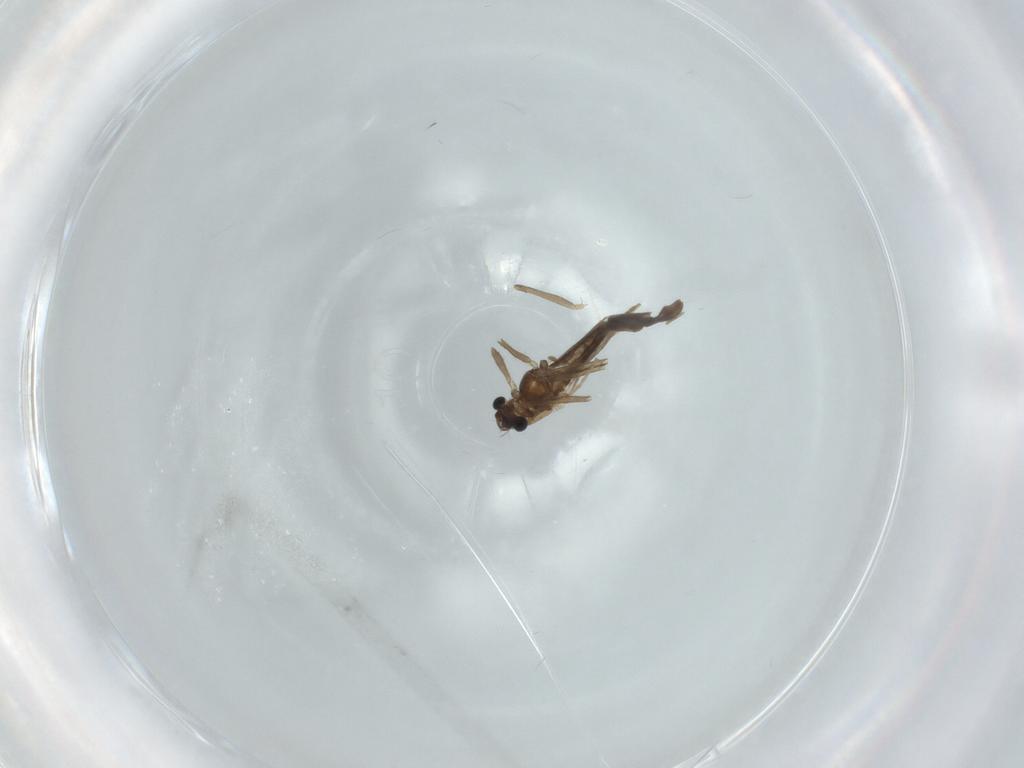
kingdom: Animalia
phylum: Arthropoda
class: Insecta
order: Diptera
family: Chironomidae
